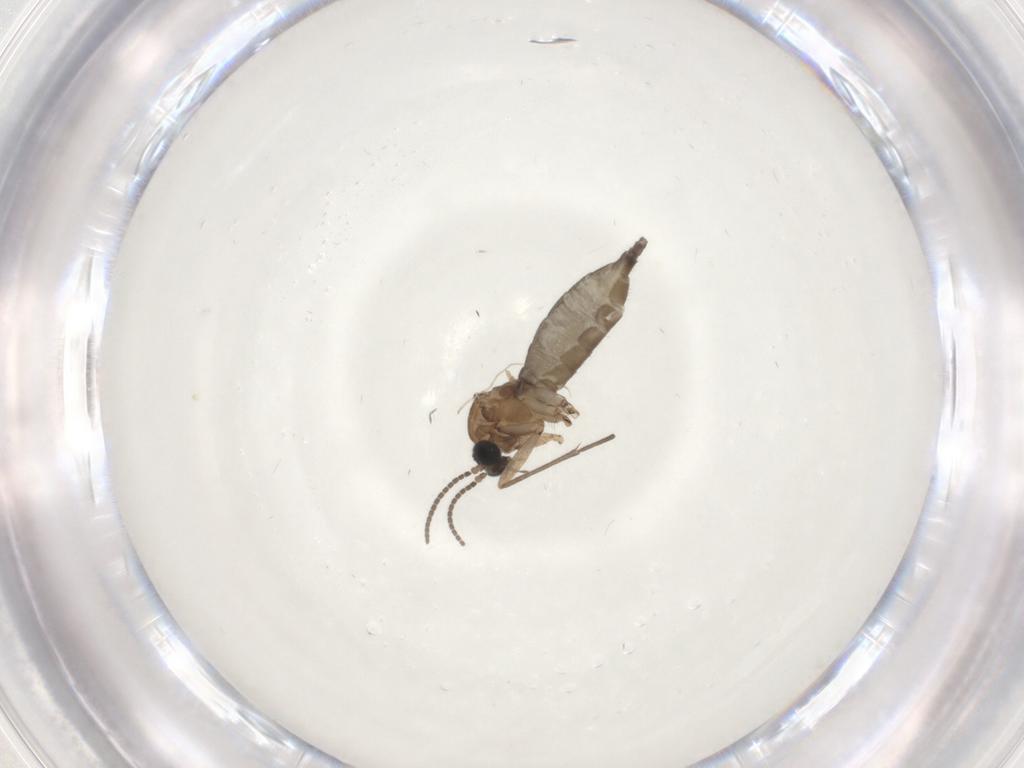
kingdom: Animalia
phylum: Arthropoda
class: Insecta
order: Diptera
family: Sciaridae
